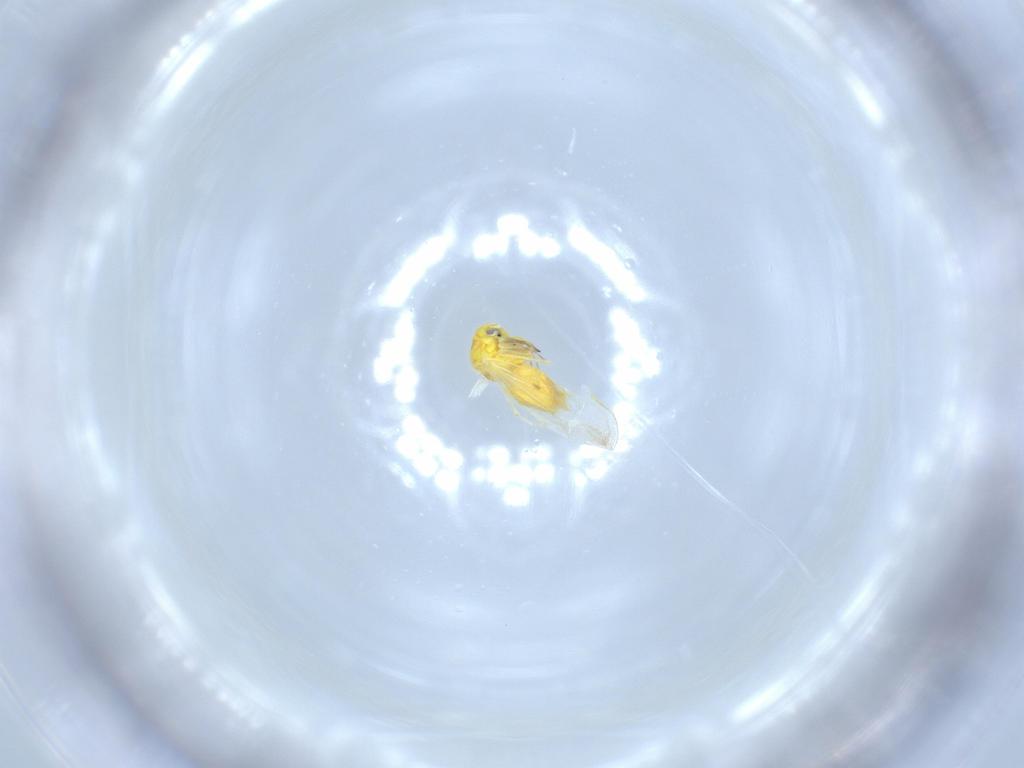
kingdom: Animalia
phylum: Arthropoda
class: Insecta
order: Hemiptera
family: Aleyrodidae
